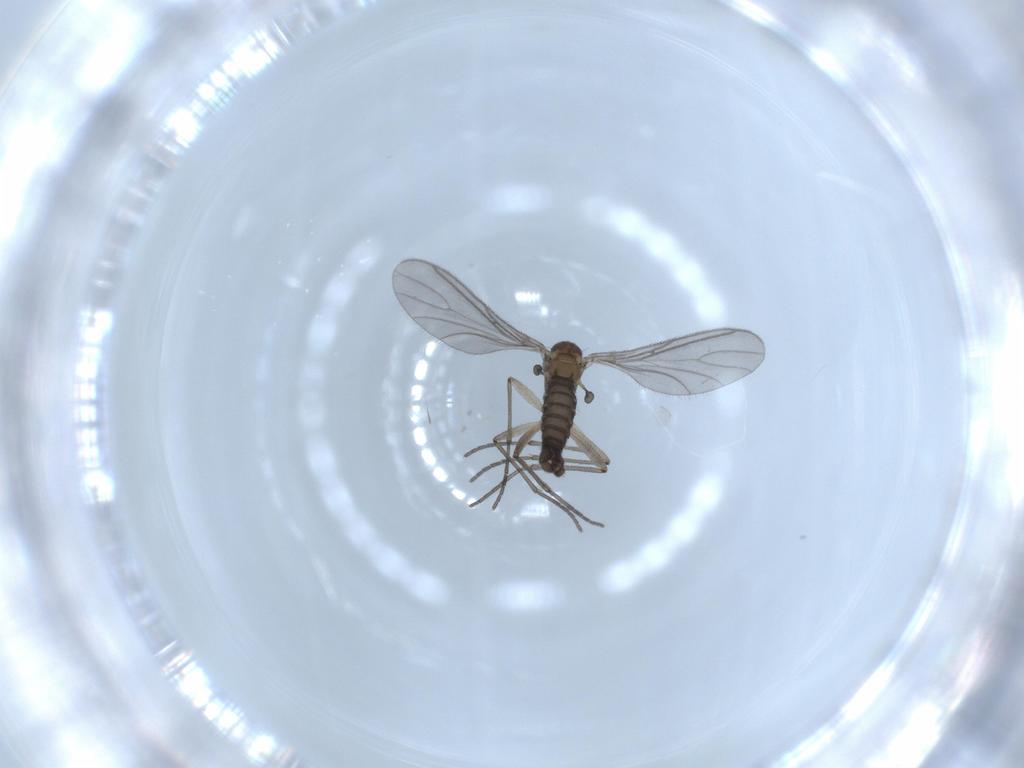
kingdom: Animalia
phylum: Arthropoda
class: Insecta
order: Diptera
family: Sciaridae
